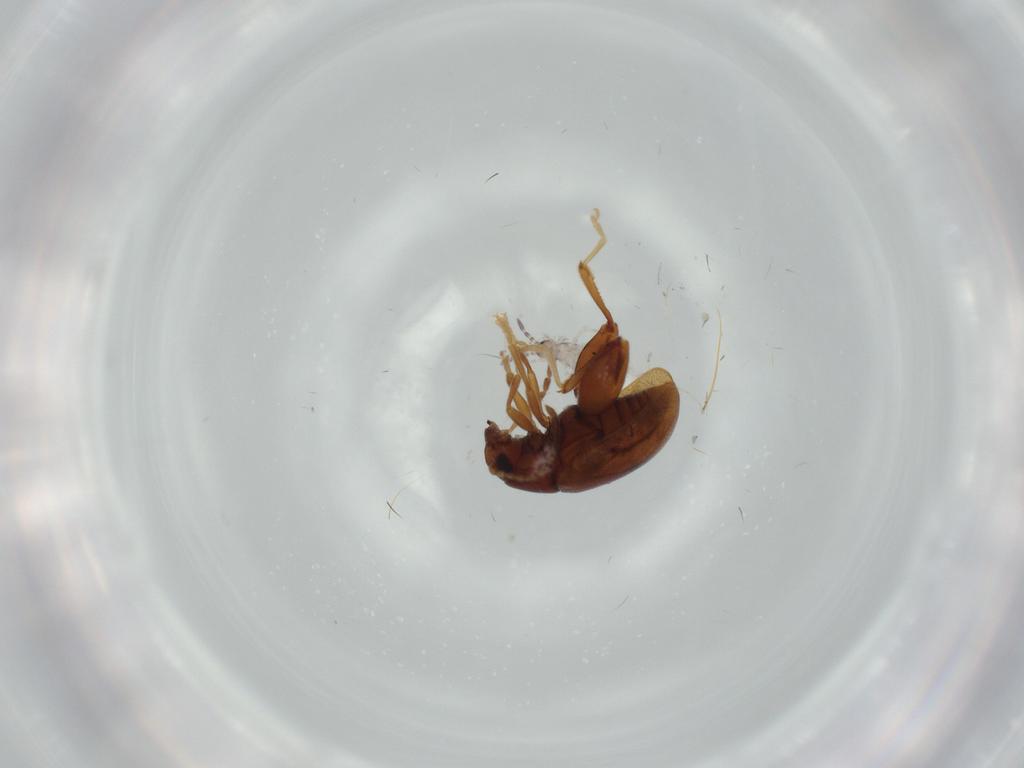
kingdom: Animalia
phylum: Arthropoda
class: Insecta
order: Coleoptera
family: Chrysomelidae
